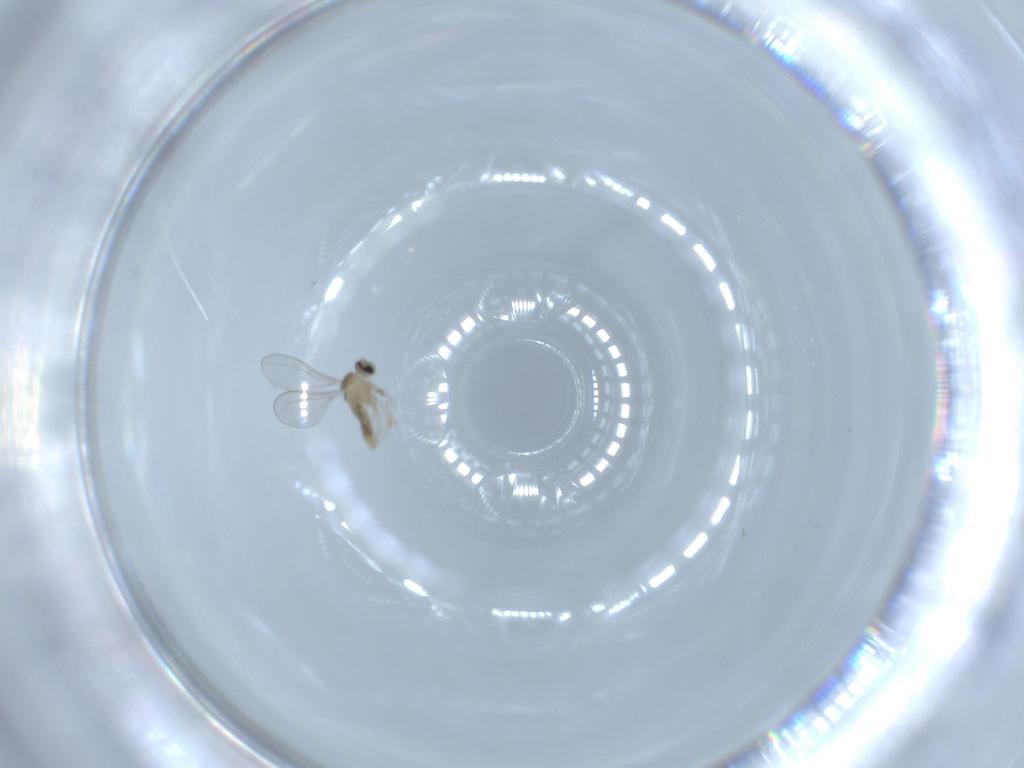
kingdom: Animalia
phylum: Arthropoda
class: Insecta
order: Diptera
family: Cecidomyiidae
